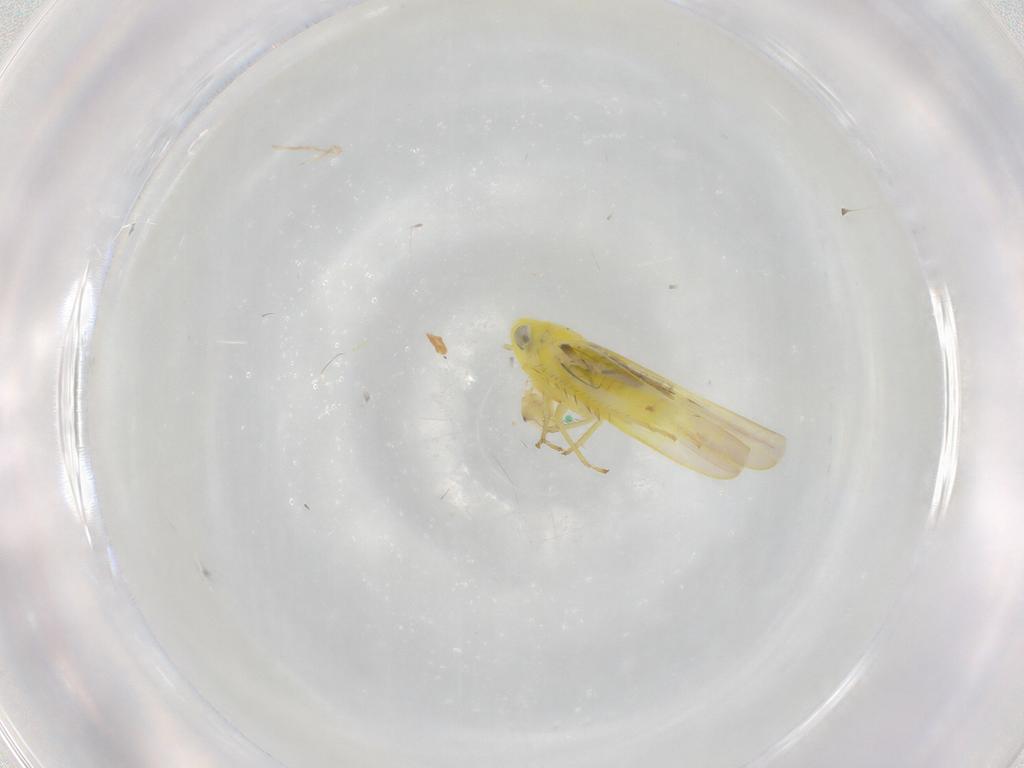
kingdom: Animalia
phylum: Arthropoda
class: Insecta
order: Hemiptera
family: Cicadellidae
